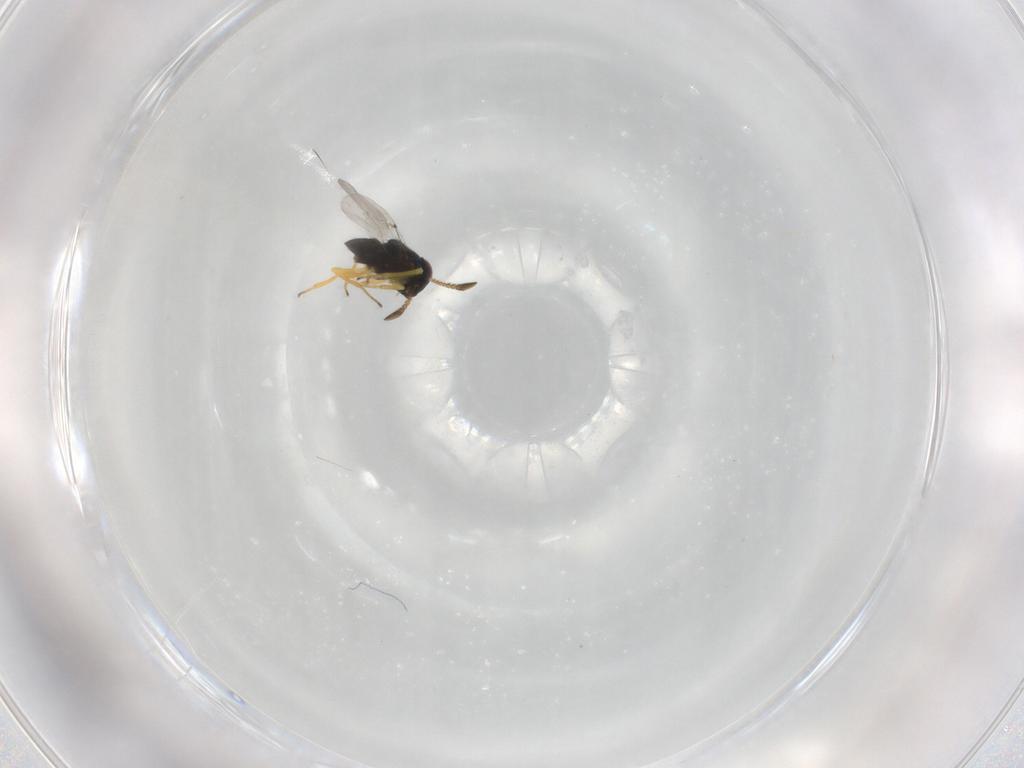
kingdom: Animalia
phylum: Arthropoda
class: Insecta
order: Hymenoptera
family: Encyrtidae
